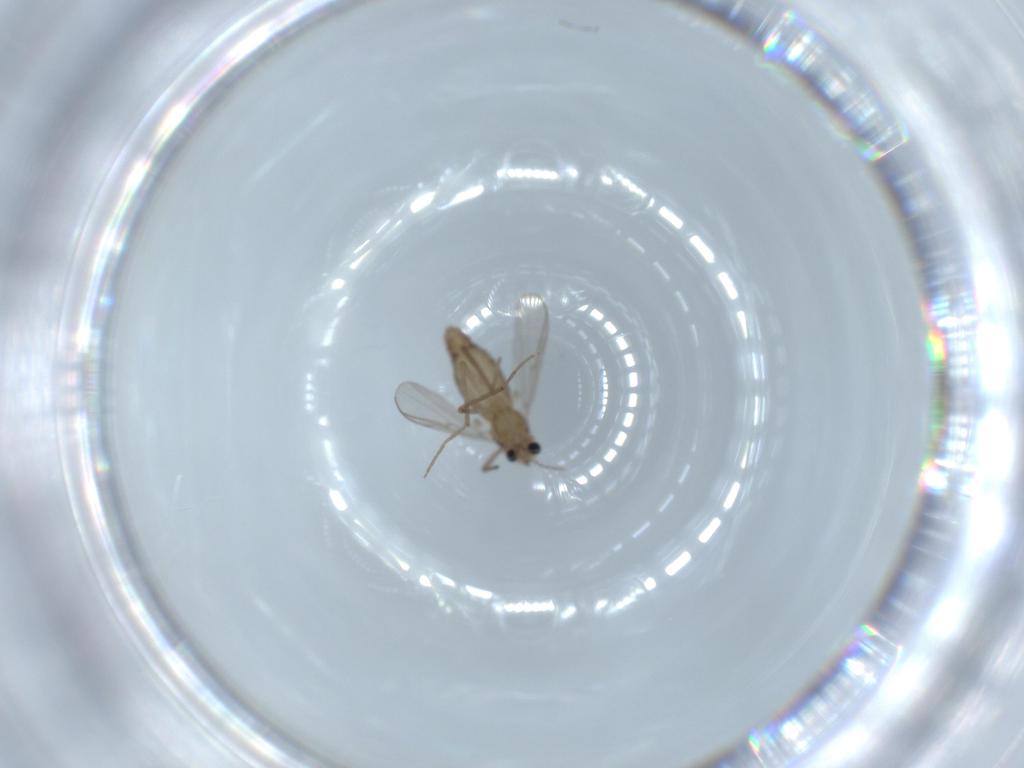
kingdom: Animalia
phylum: Arthropoda
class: Insecta
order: Diptera
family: Chironomidae
